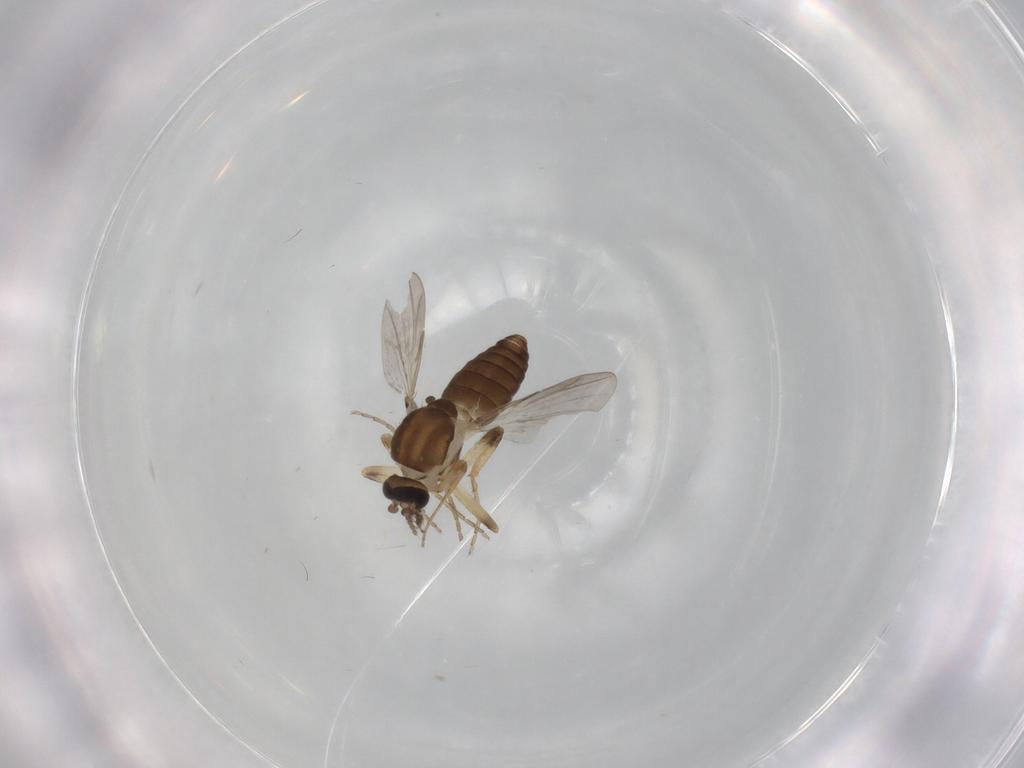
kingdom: Animalia
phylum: Arthropoda
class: Insecta
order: Diptera
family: Ceratopogonidae
